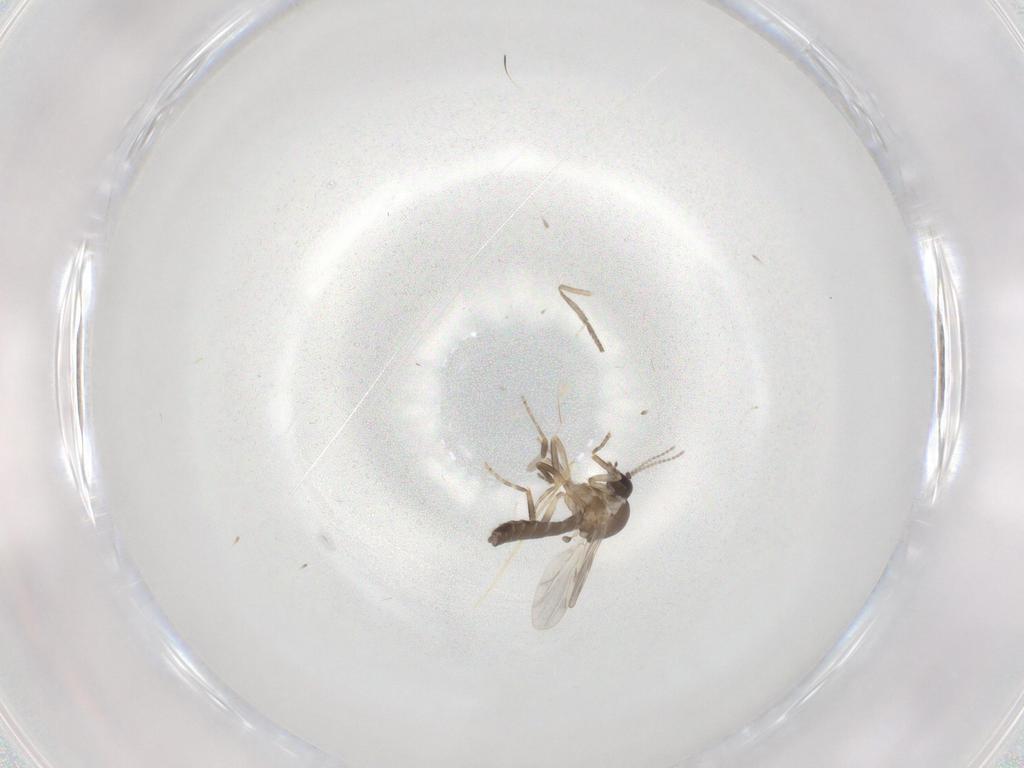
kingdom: Animalia
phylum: Arthropoda
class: Insecta
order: Diptera
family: Ceratopogonidae
